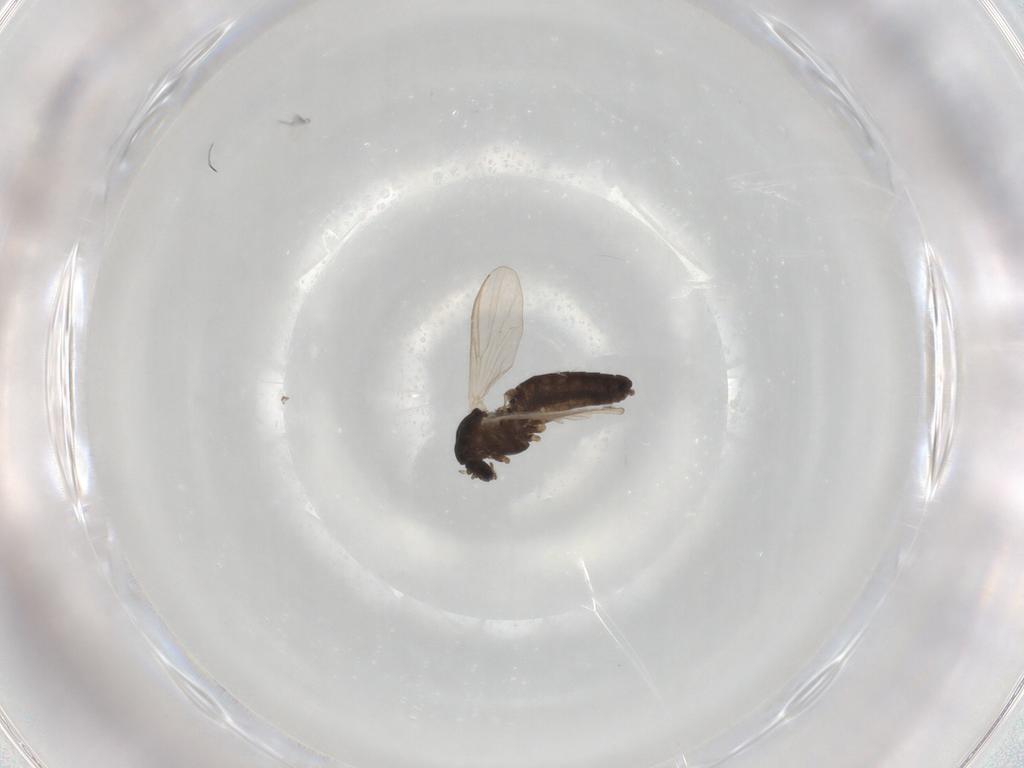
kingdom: Animalia
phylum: Arthropoda
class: Insecta
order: Diptera
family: Chironomidae
